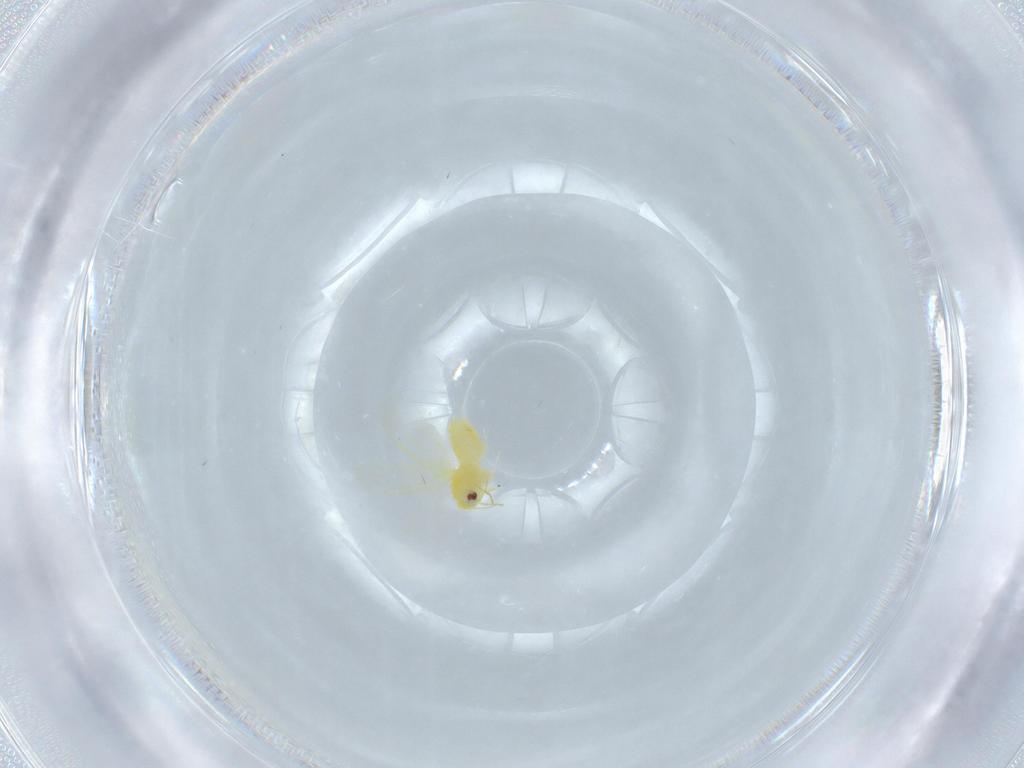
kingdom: Animalia
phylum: Arthropoda
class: Insecta
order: Hemiptera
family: Aleyrodidae
